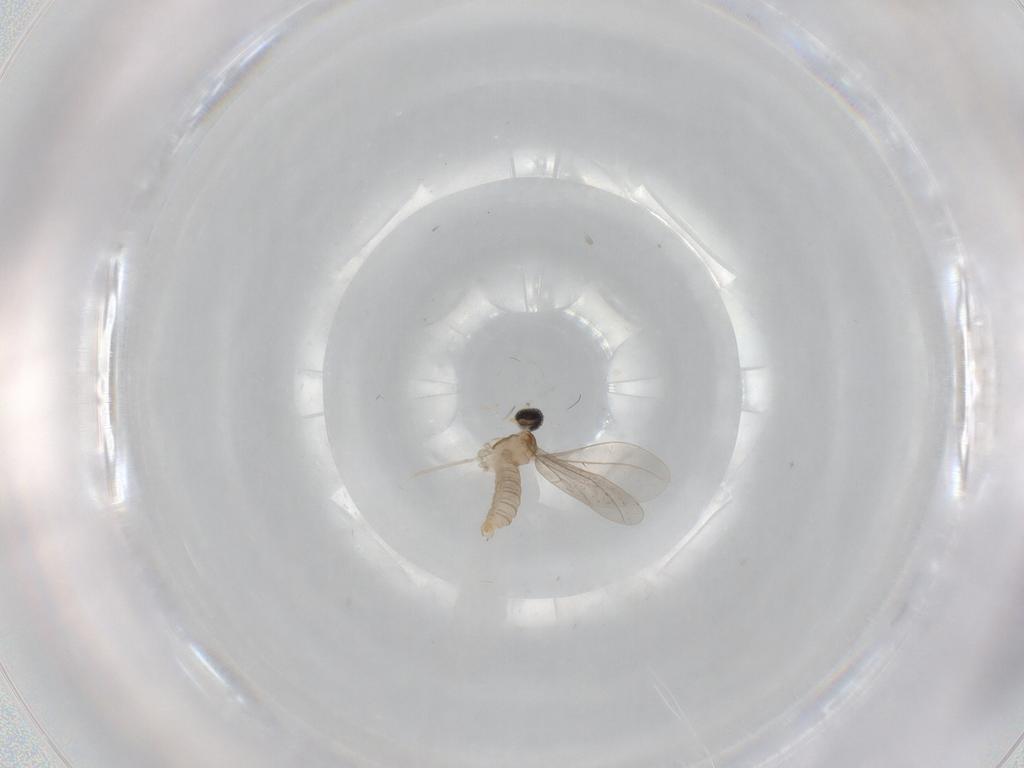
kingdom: Animalia
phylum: Arthropoda
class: Insecta
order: Diptera
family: Cecidomyiidae
